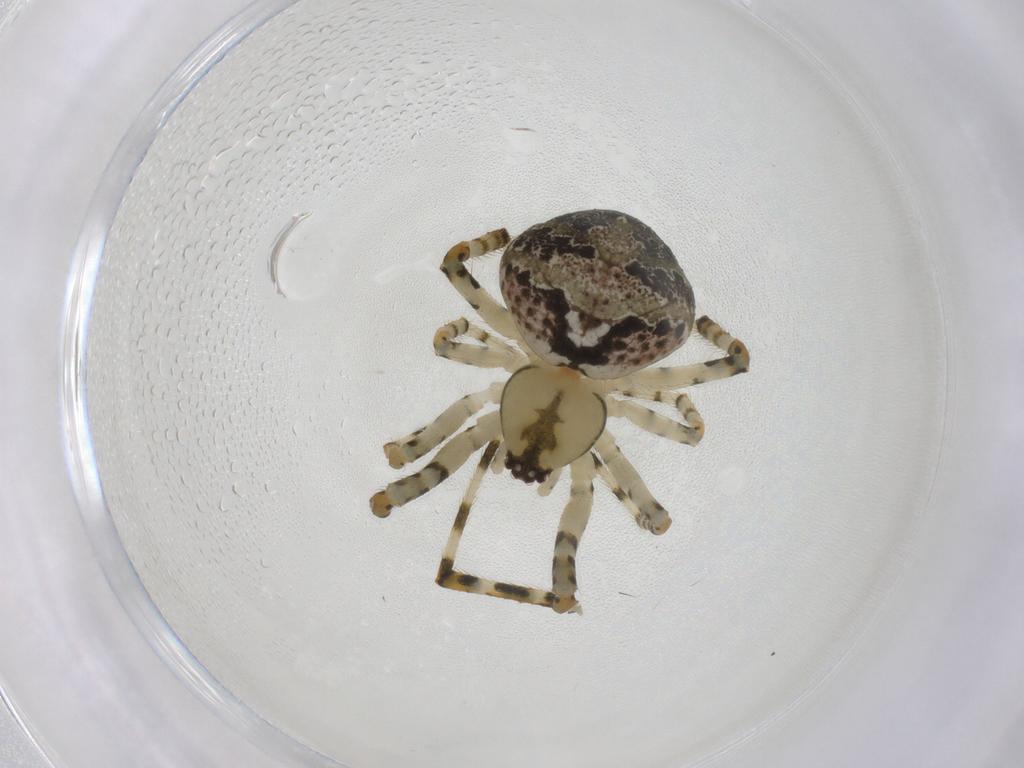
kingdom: Animalia
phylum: Arthropoda
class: Arachnida
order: Araneae
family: Theridiidae
